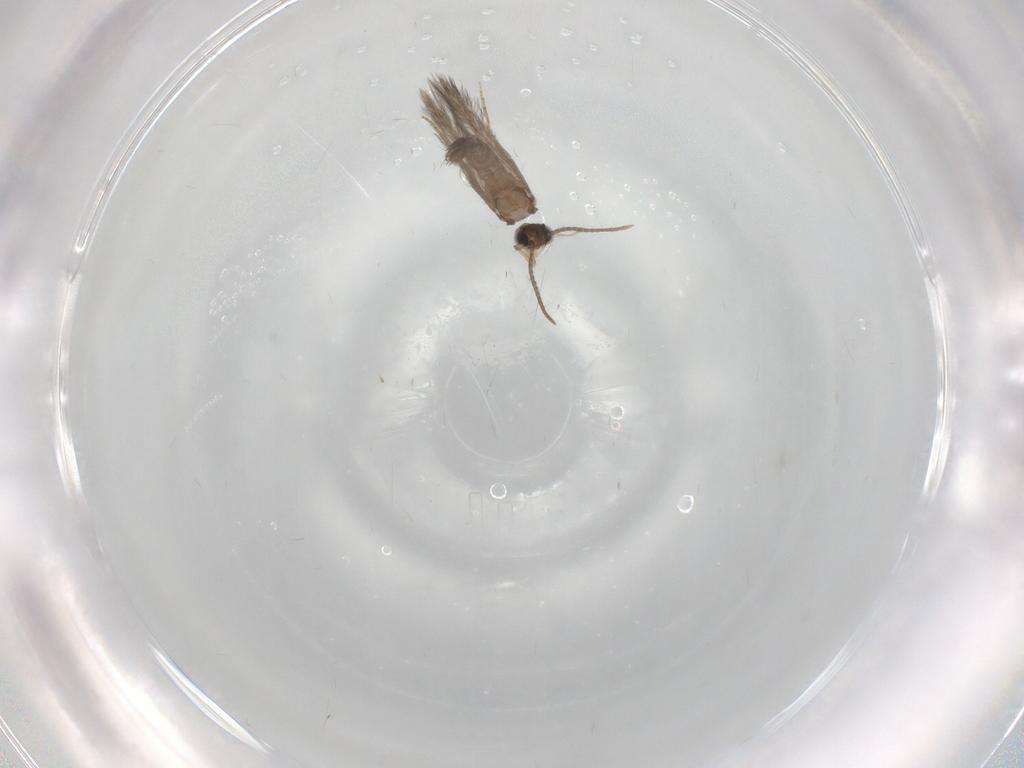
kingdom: Animalia
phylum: Arthropoda
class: Insecta
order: Trichoptera
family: Hydroptilidae
